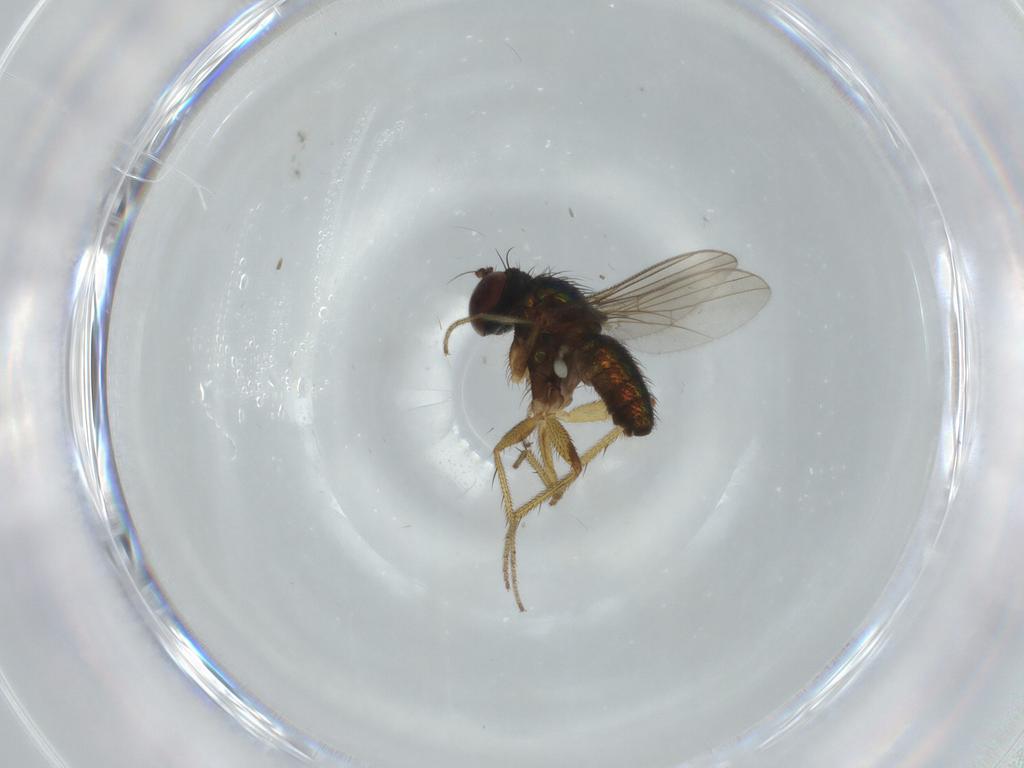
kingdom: Animalia
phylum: Arthropoda
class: Insecta
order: Diptera
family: Dolichopodidae
